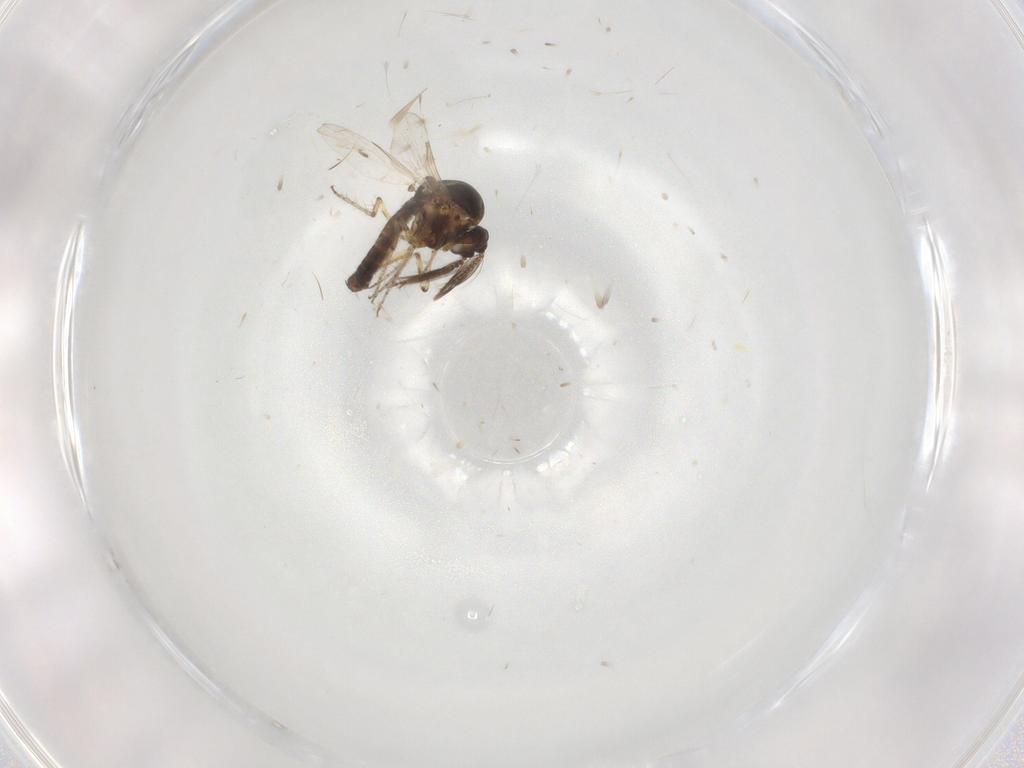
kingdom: Animalia
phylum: Arthropoda
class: Insecta
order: Diptera
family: Ceratopogonidae
